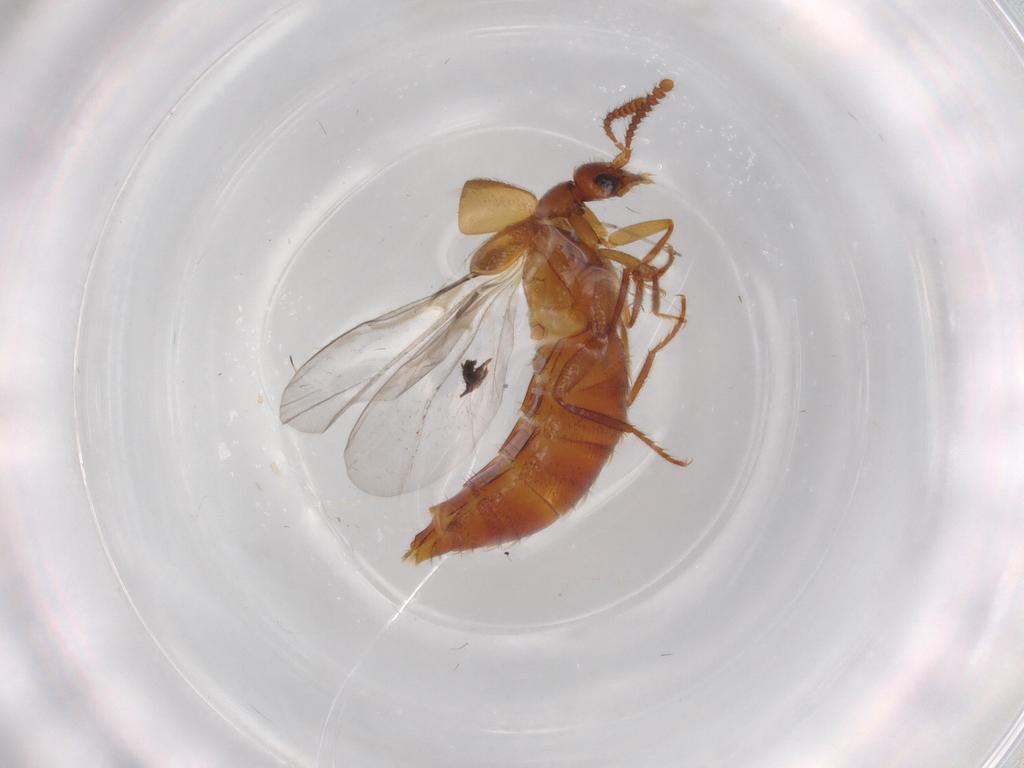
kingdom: Animalia
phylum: Arthropoda
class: Insecta
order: Coleoptera
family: Staphylinidae
